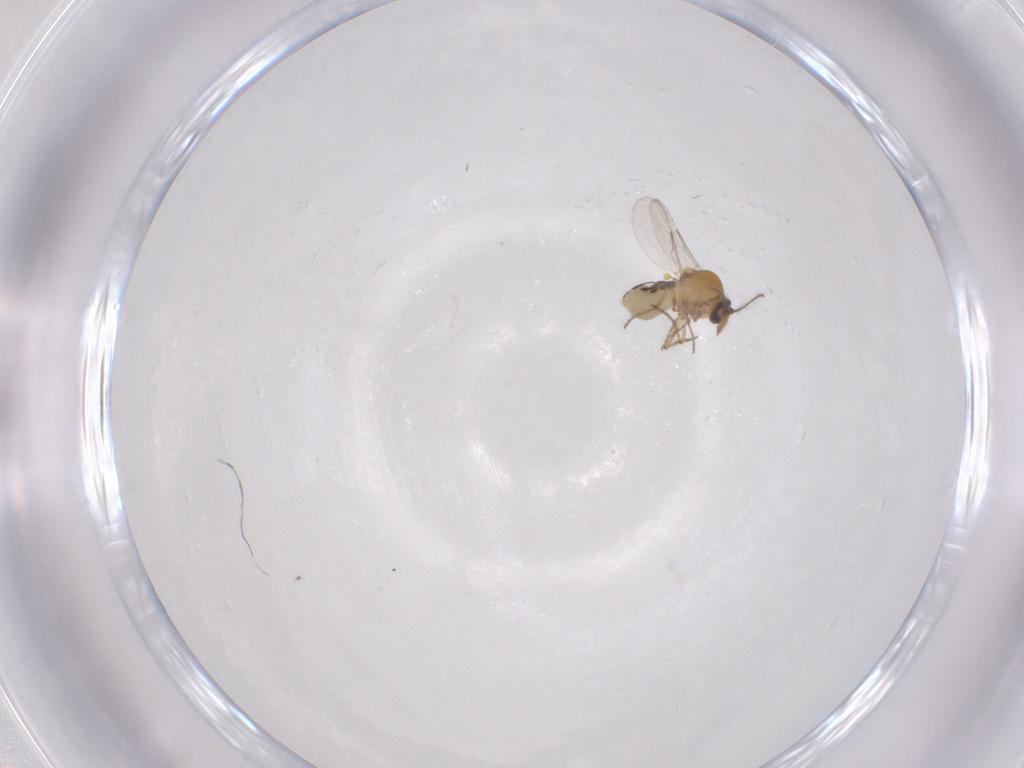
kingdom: Animalia
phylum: Arthropoda
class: Insecta
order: Diptera
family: Ceratopogonidae
